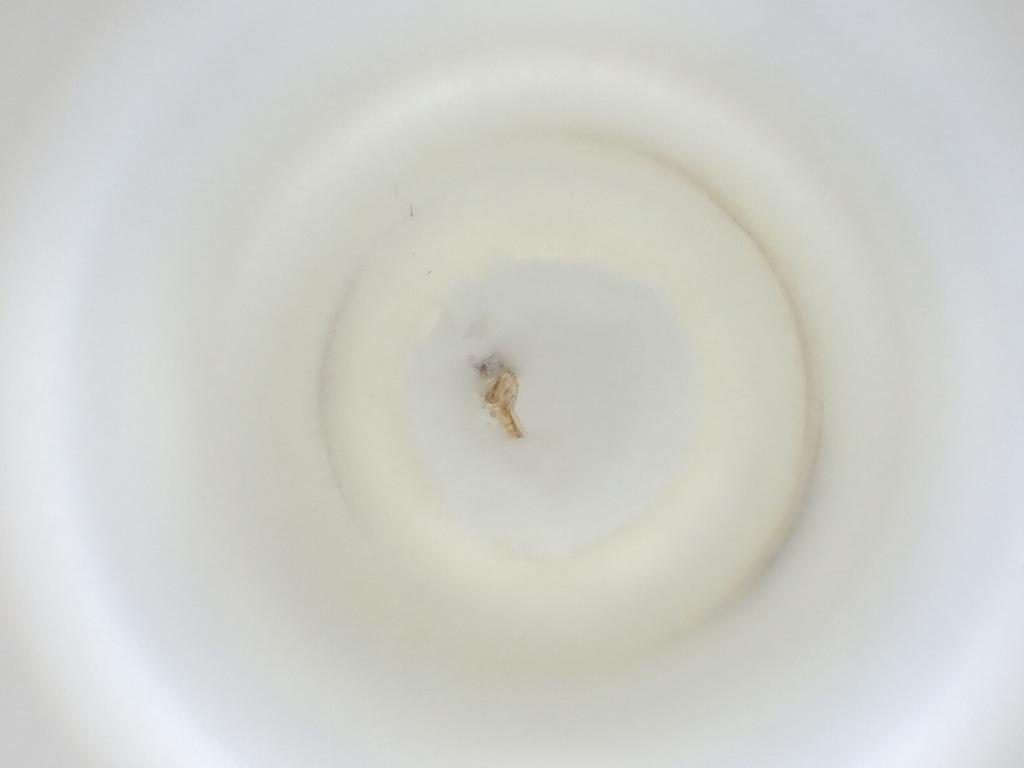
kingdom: Animalia
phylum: Arthropoda
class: Insecta
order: Diptera
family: Cecidomyiidae
